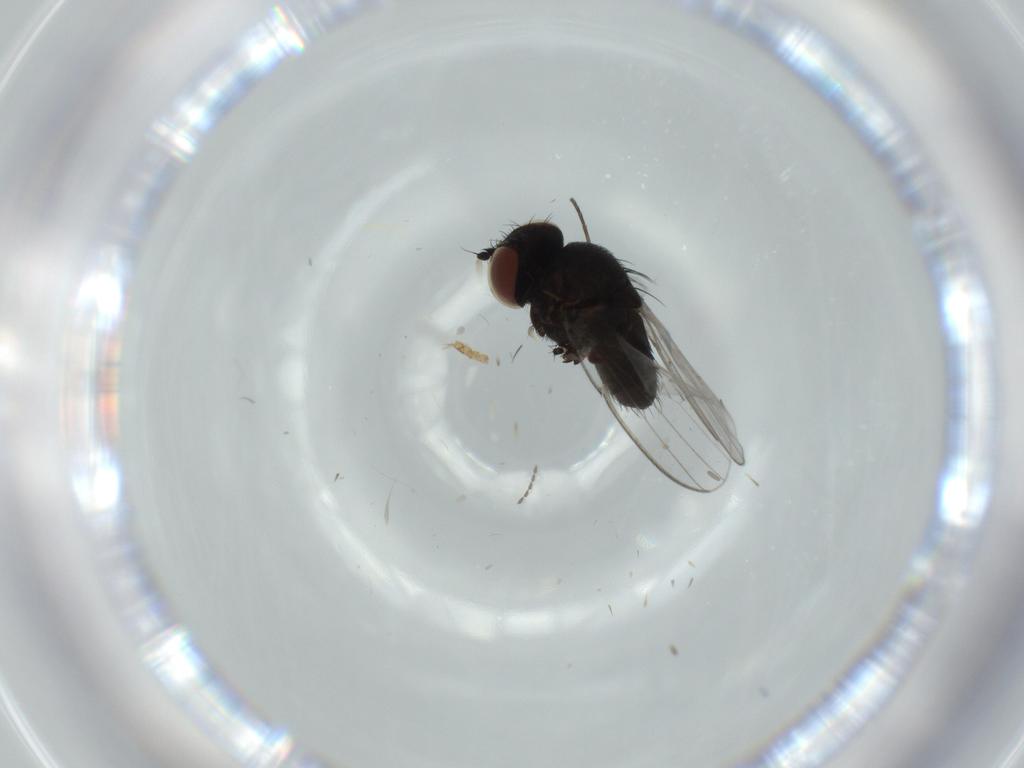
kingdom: Animalia
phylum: Arthropoda
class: Insecta
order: Diptera
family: Milichiidae
